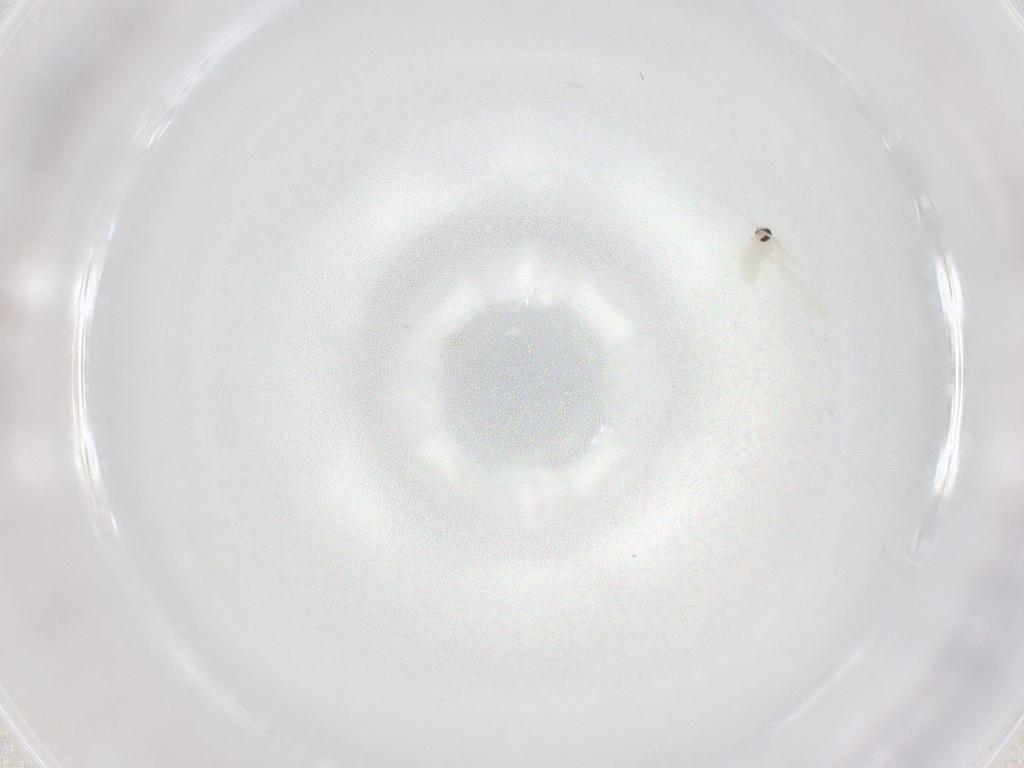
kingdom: Animalia
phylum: Arthropoda
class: Insecta
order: Diptera
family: Cecidomyiidae
